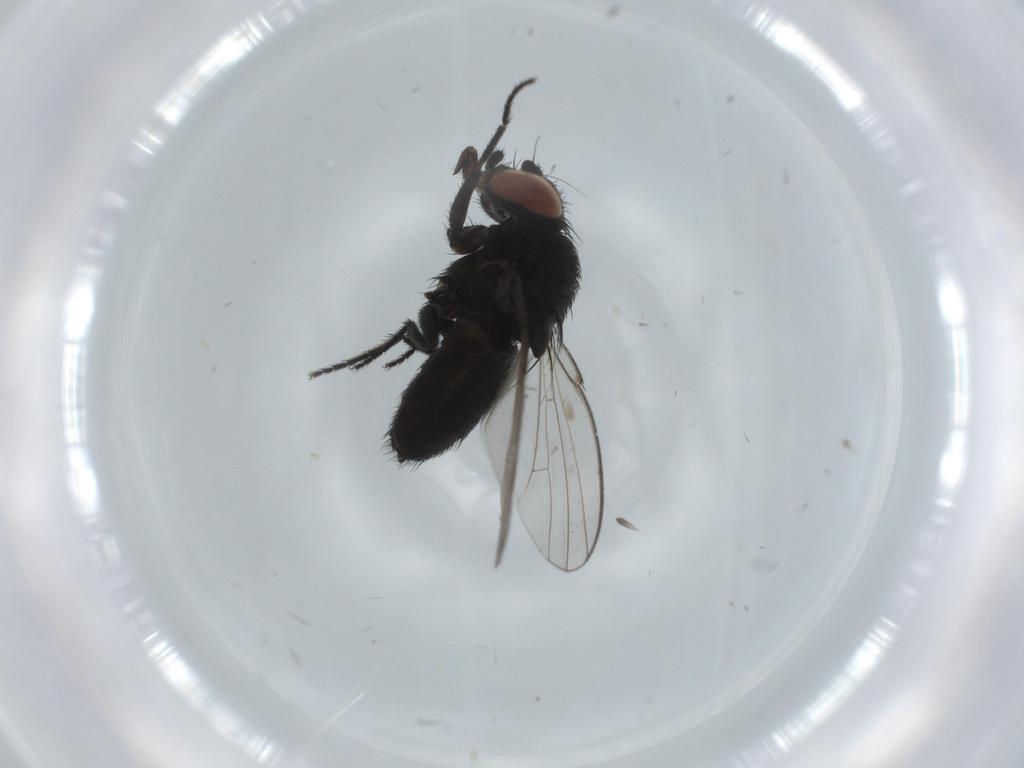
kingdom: Animalia
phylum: Arthropoda
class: Insecta
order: Diptera
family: Milichiidae
